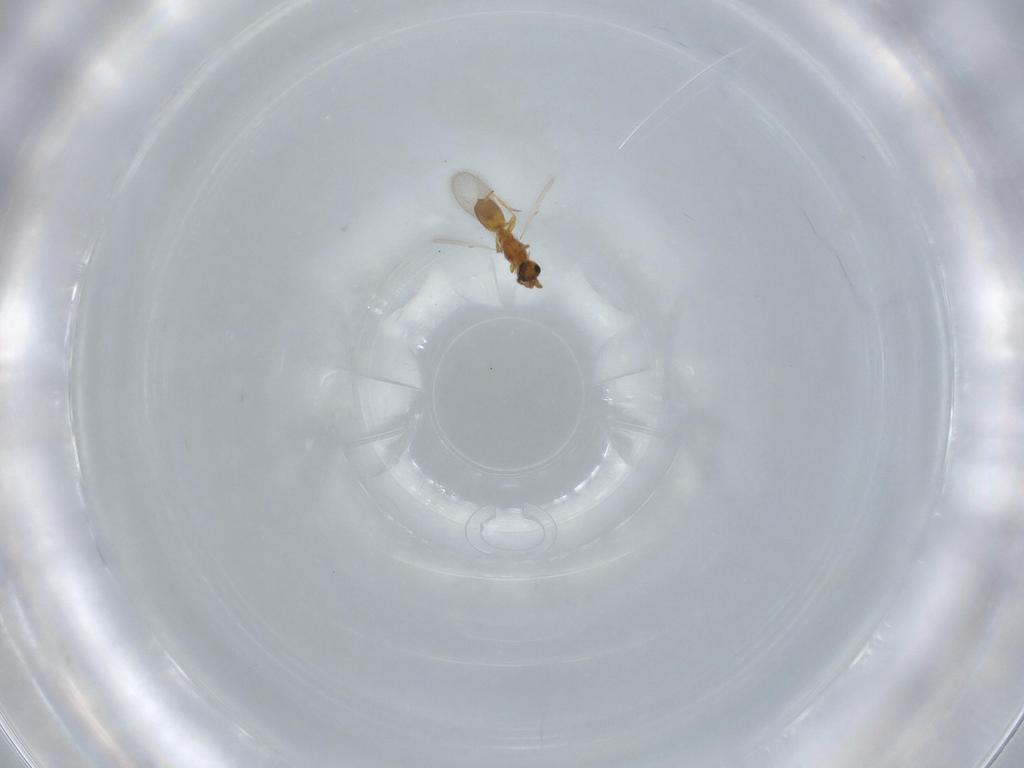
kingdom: Animalia
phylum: Arthropoda
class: Insecta
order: Hymenoptera
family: Diapriidae
